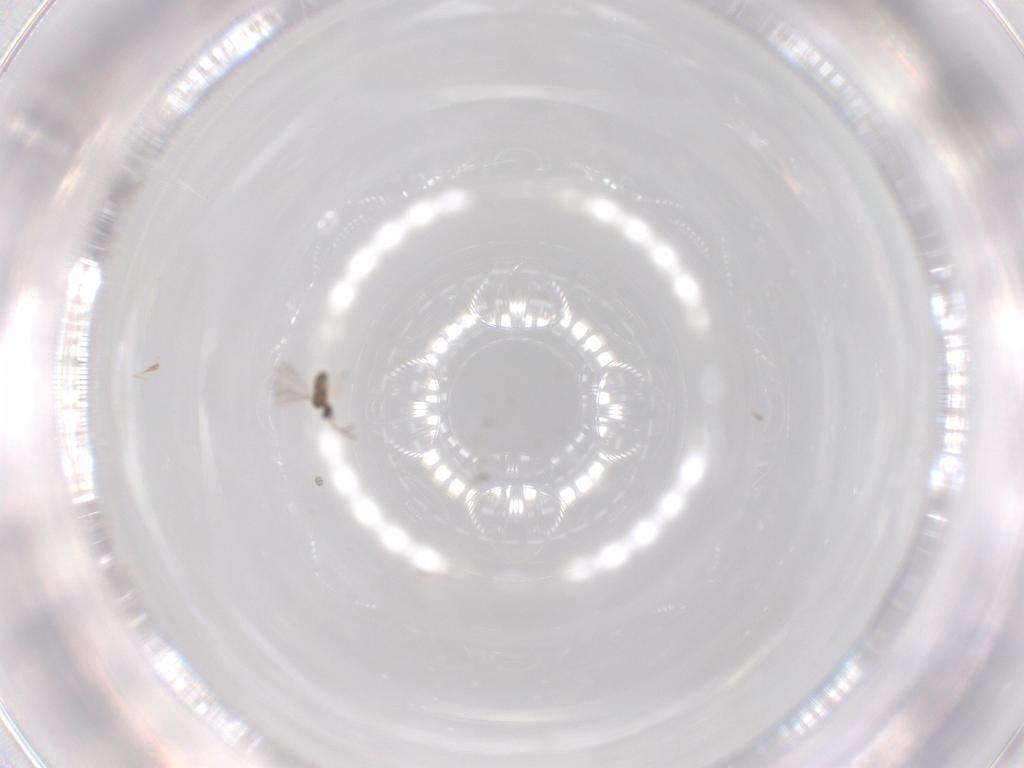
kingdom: Animalia
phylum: Arthropoda
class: Insecta
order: Hymenoptera
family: Mymaridae
